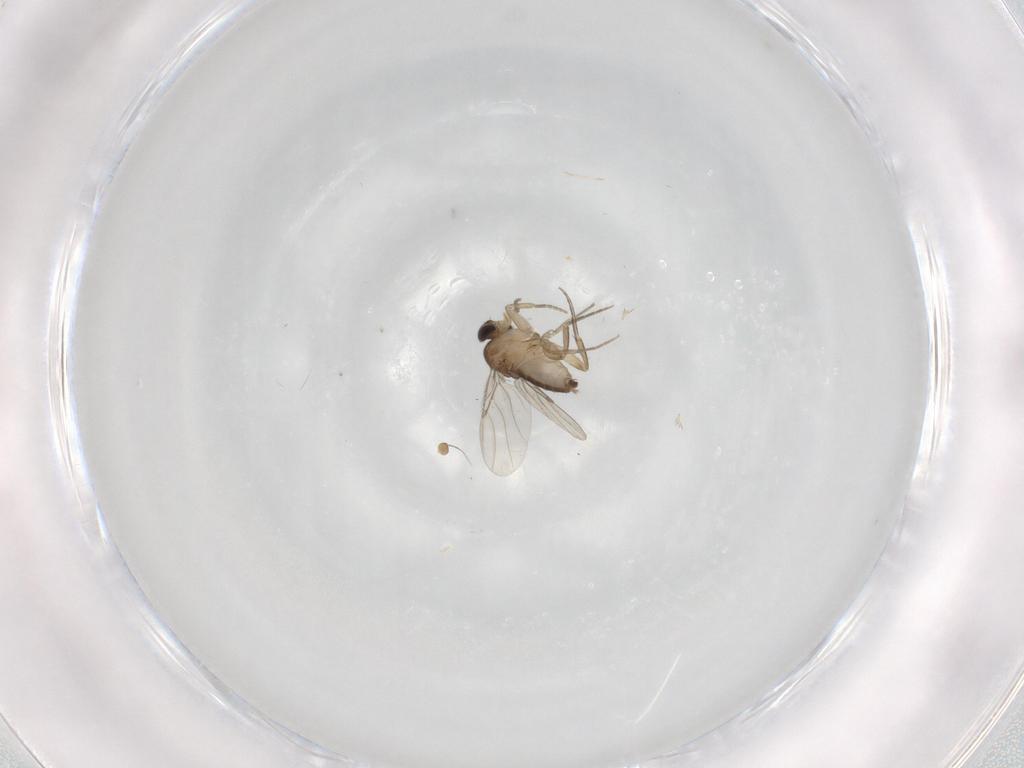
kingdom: Animalia
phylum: Arthropoda
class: Insecta
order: Diptera
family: Phoridae
